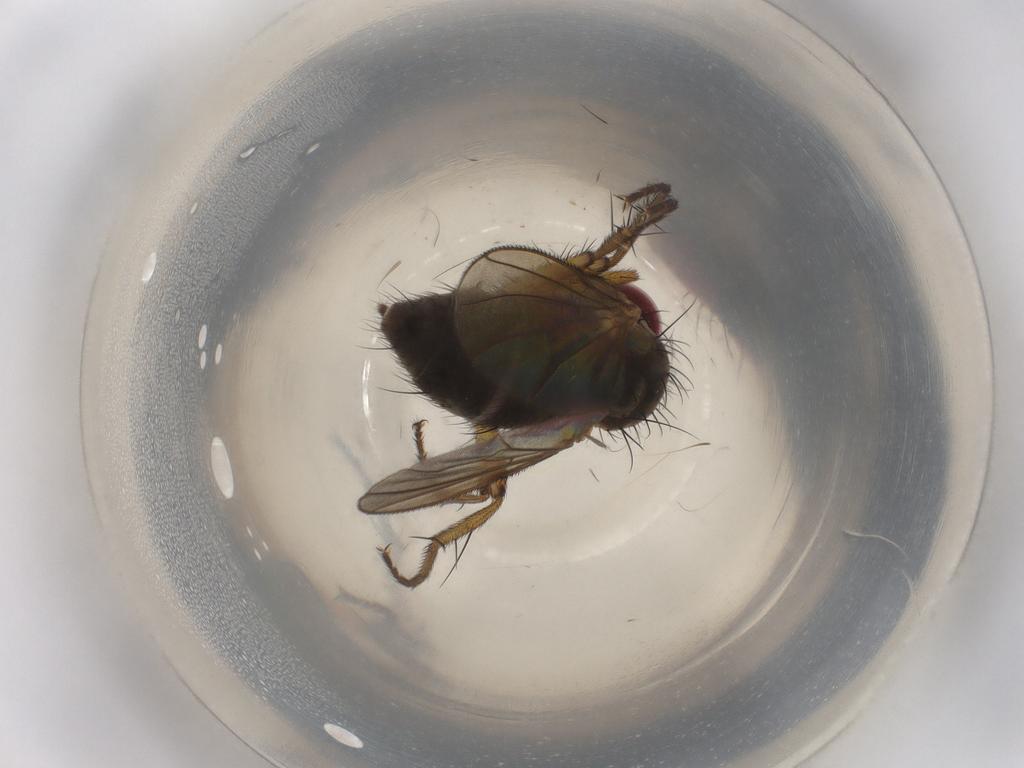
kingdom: Animalia
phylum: Arthropoda
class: Insecta
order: Diptera
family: Muscidae
